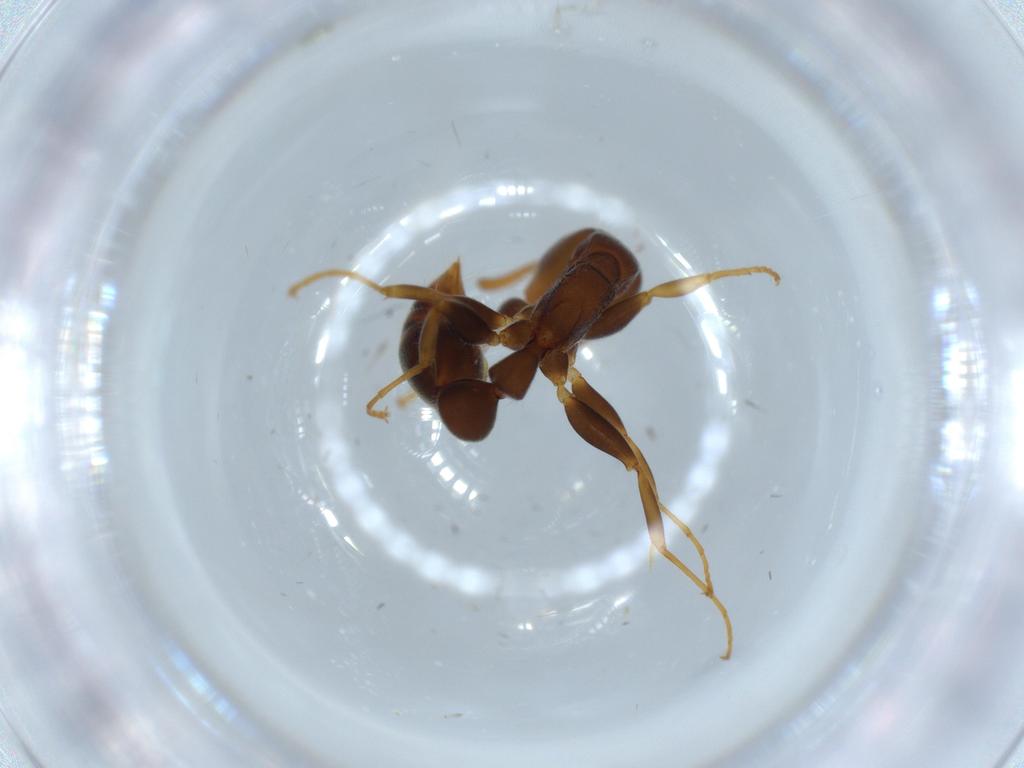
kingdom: Animalia
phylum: Arthropoda
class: Insecta
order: Hymenoptera
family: Formicidae
